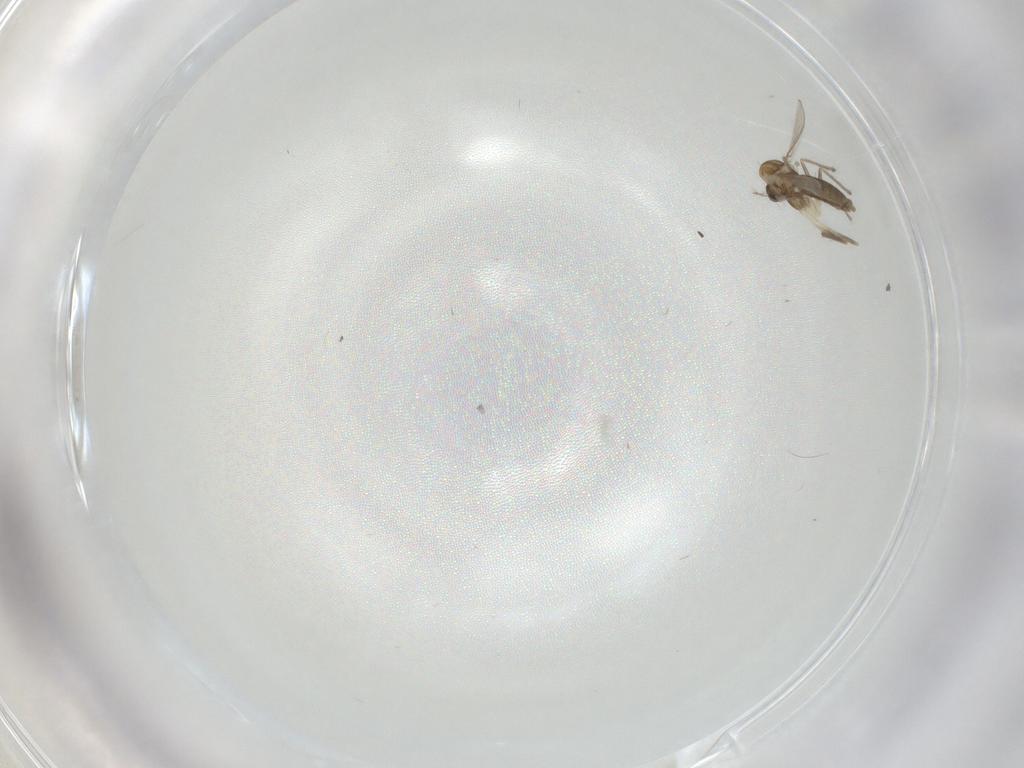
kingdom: Animalia
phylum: Arthropoda
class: Insecta
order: Diptera
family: Chironomidae
